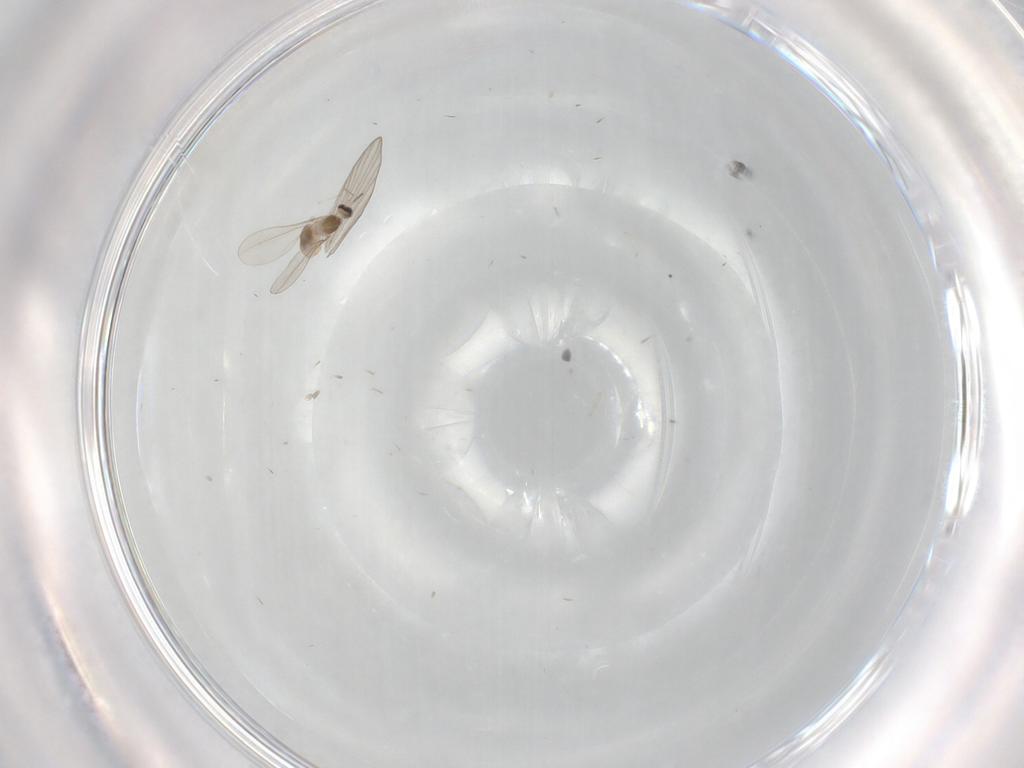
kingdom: Animalia
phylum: Arthropoda
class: Insecta
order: Diptera
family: Cecidomyiidae
